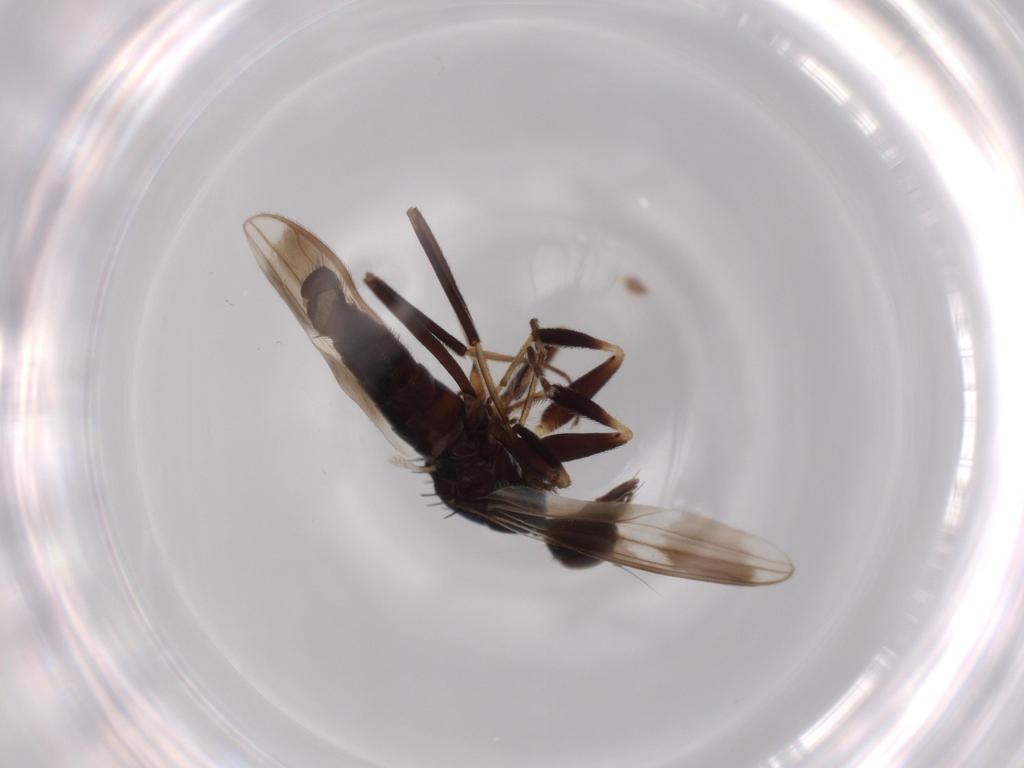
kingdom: Animalia
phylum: Arthropoda
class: Insecta
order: Diptera
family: Hybotidae
